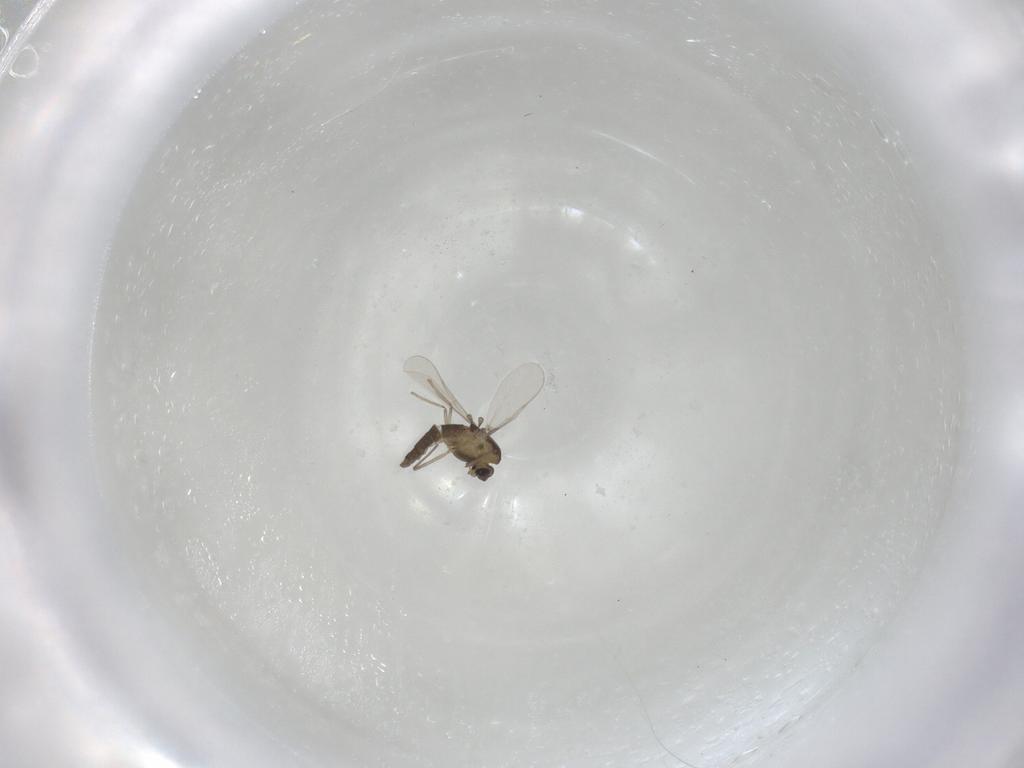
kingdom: Animalia
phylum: Arthropoda
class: Insecta
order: Diptera
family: Chironomidae
